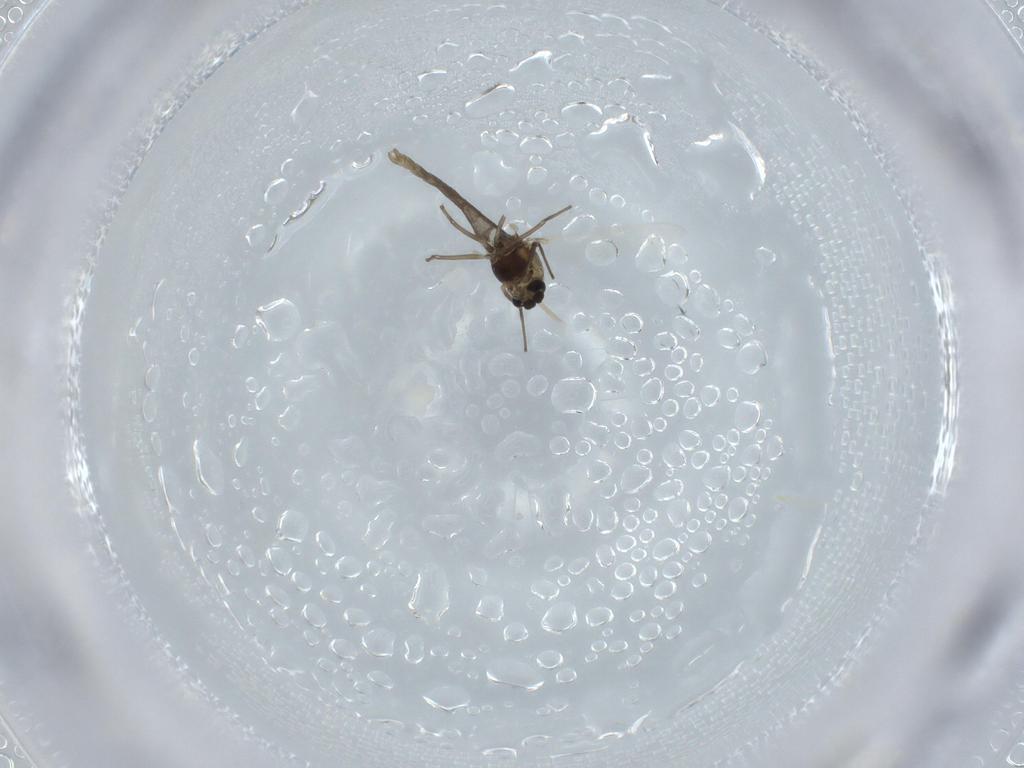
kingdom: Animalia
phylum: Arthropoda
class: Insecta
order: Diptera
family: Chironomidae
